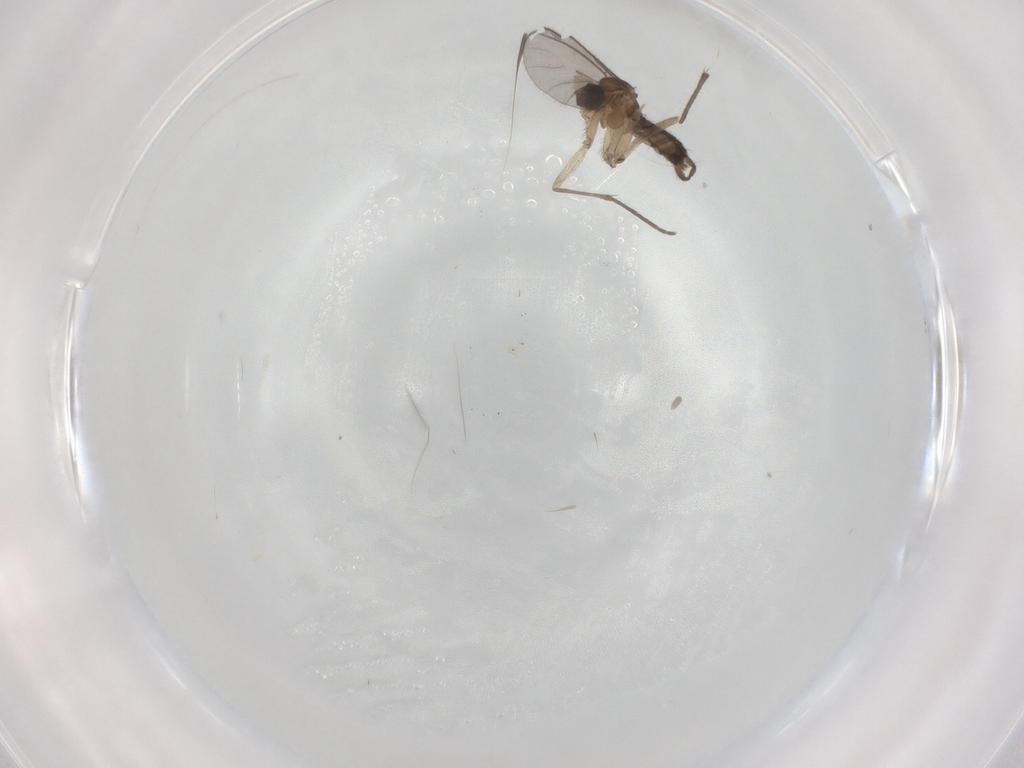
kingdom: Animalia
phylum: Arthropoda
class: Insecta
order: Diptera
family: Sciaridae
